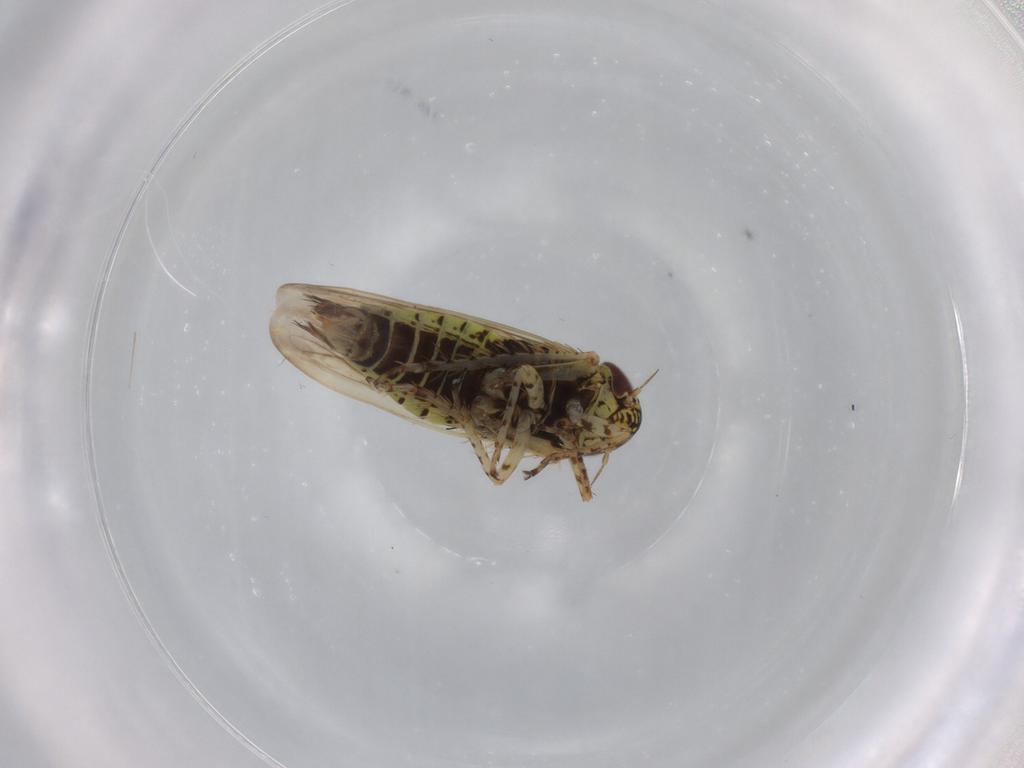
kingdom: Animalia
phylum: Arthropoda
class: Insecta
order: Hemiptera
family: Cicadellidae
